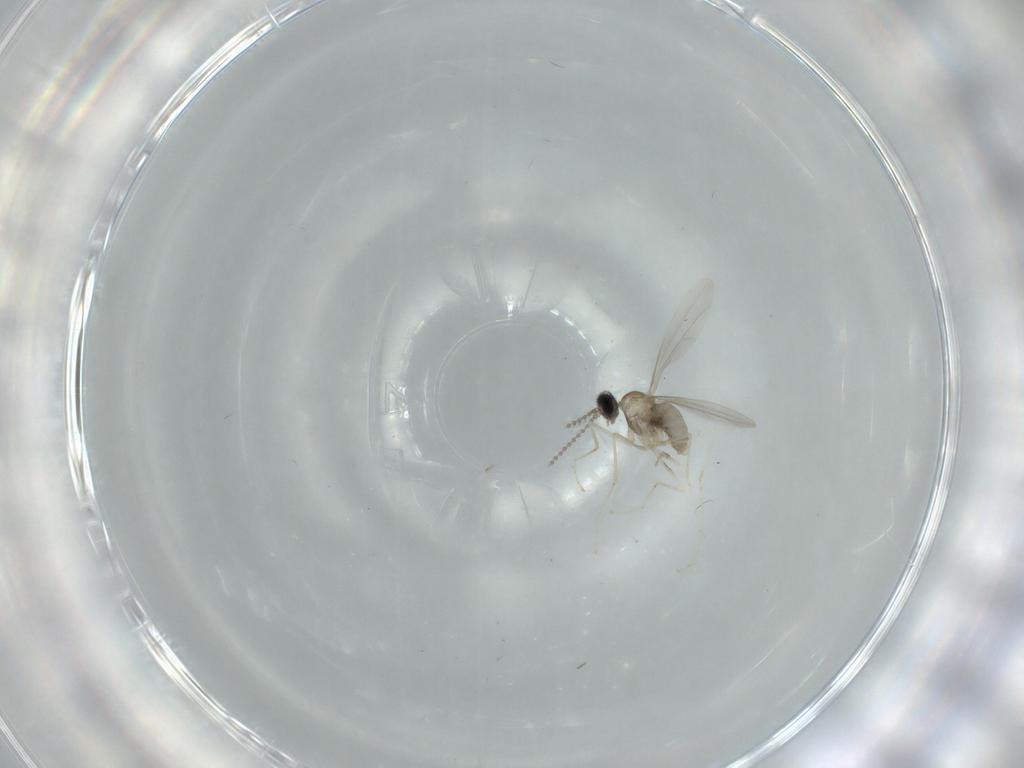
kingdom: Animalia
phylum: Arthropoda
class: Insecta
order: Diptera
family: Cecidomyiidae
